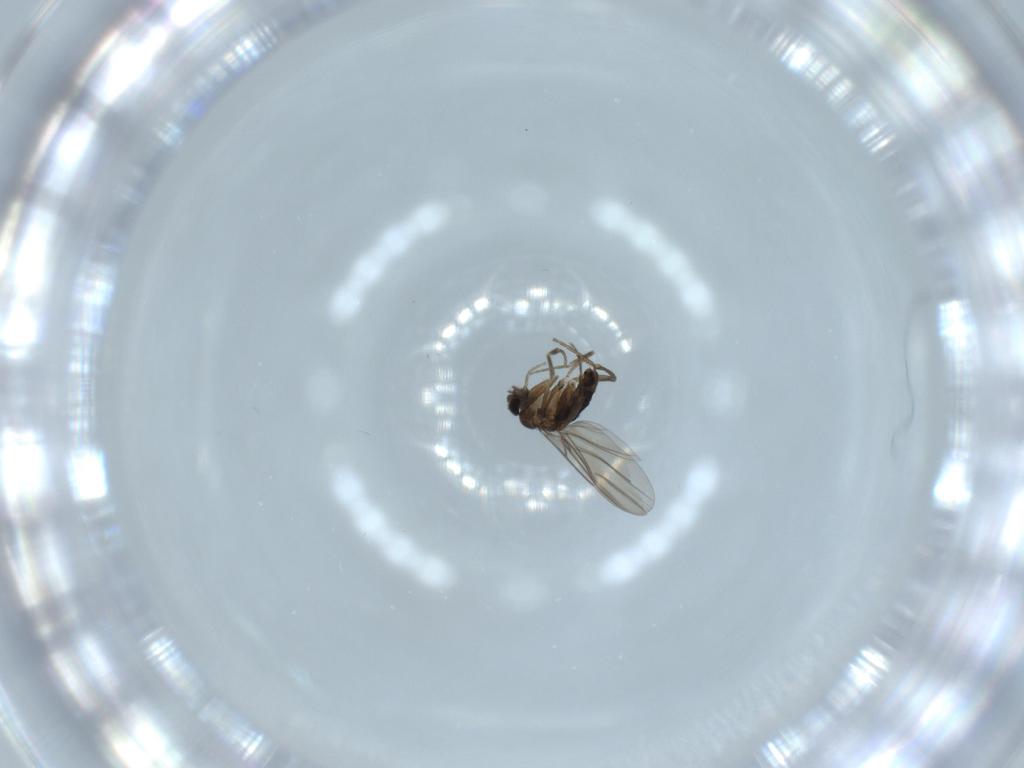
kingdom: Animalia
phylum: Arthropoda
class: Insecta
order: Diptera
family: Phoridae
